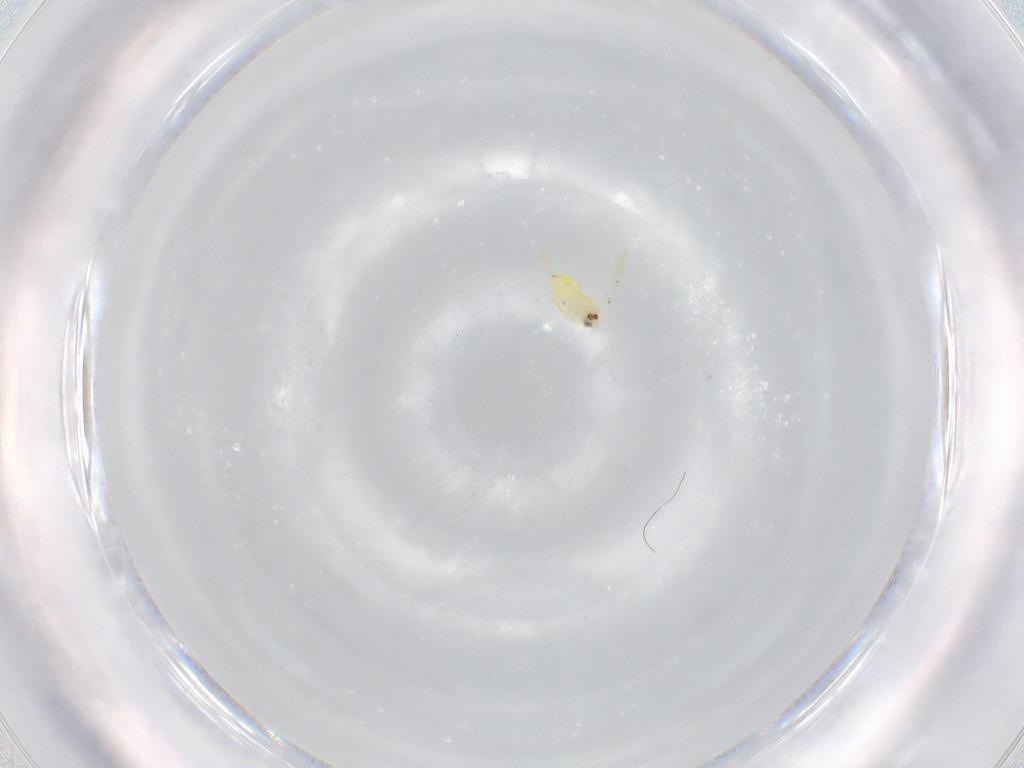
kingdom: Animalia
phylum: Arthropoda
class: Insecta
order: Hemiptera
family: Aleyrodidae
